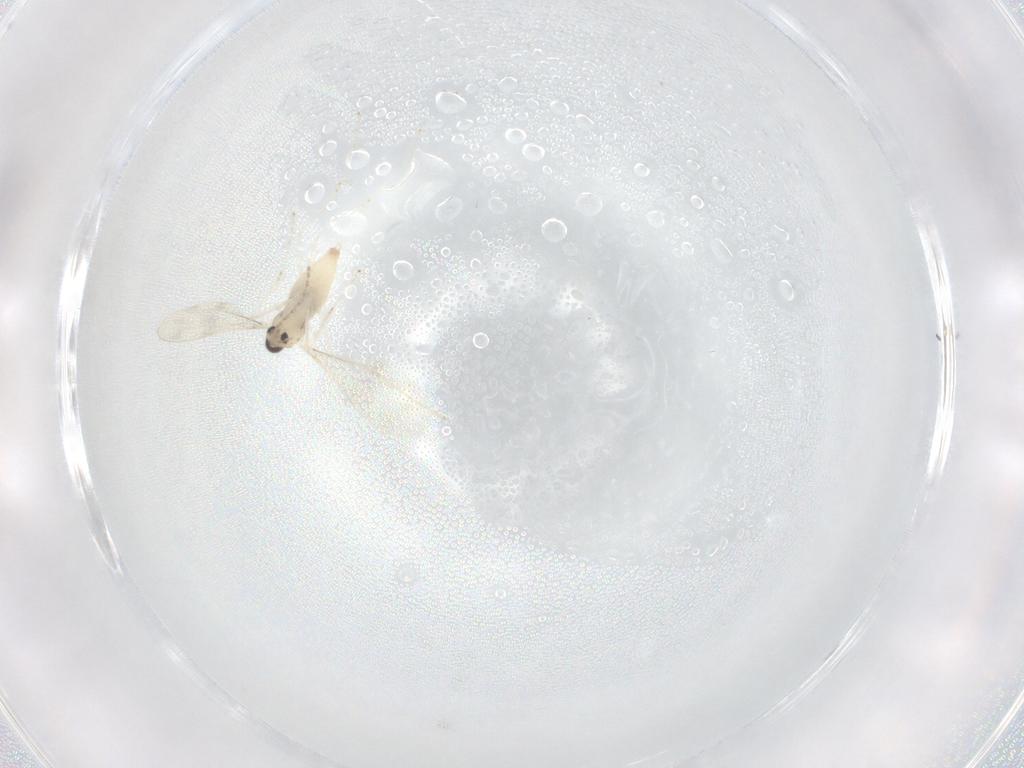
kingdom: Animalia
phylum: Arthropoda
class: Insecta
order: Diptera
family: Cecidomyiidae
